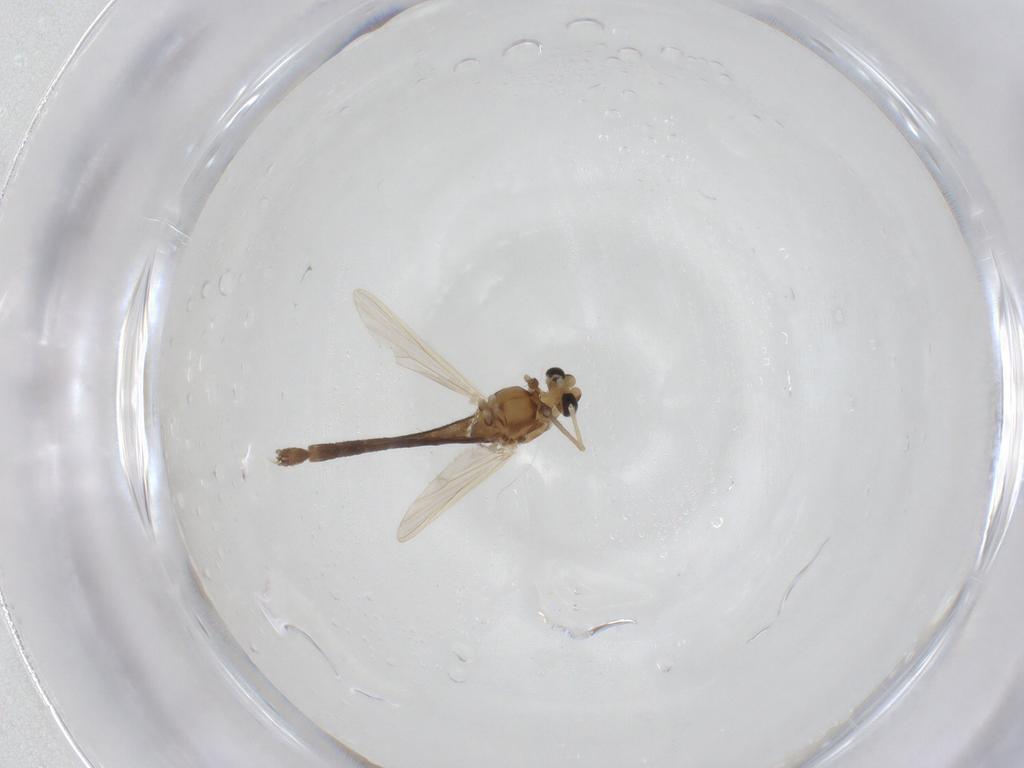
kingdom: Animalia
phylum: Arthropoda
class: Insecta
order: Diptera
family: Chironomidae
